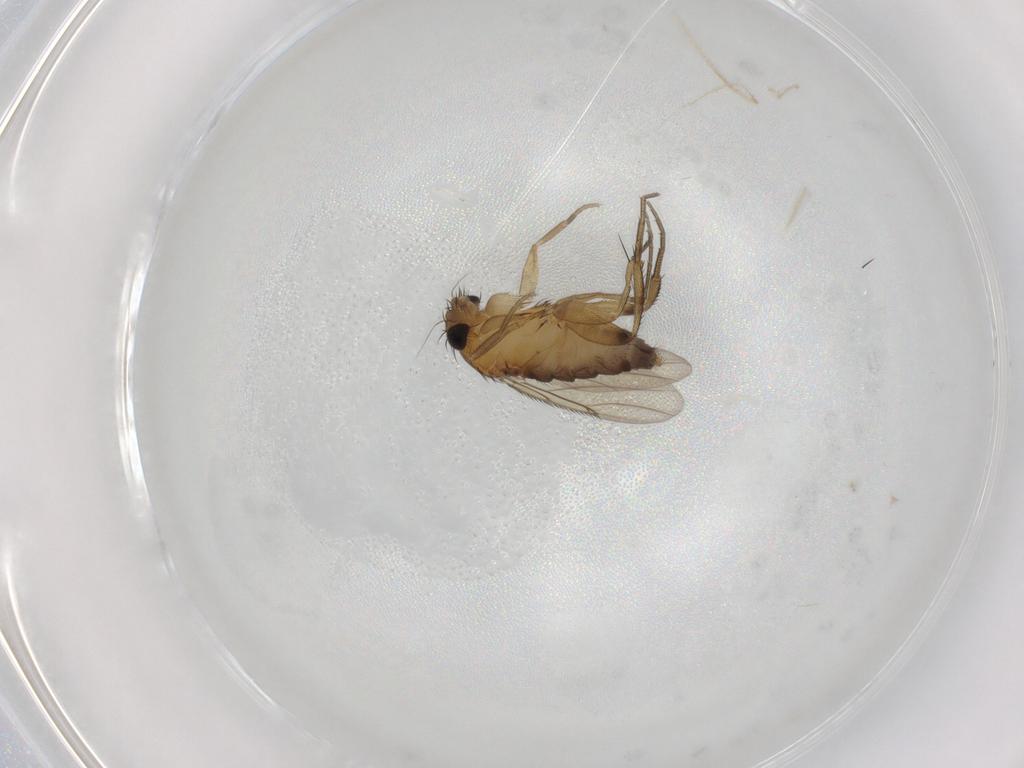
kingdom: Animalia
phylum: Arthropoda
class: Insecta
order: Diptera
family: Phoridae
